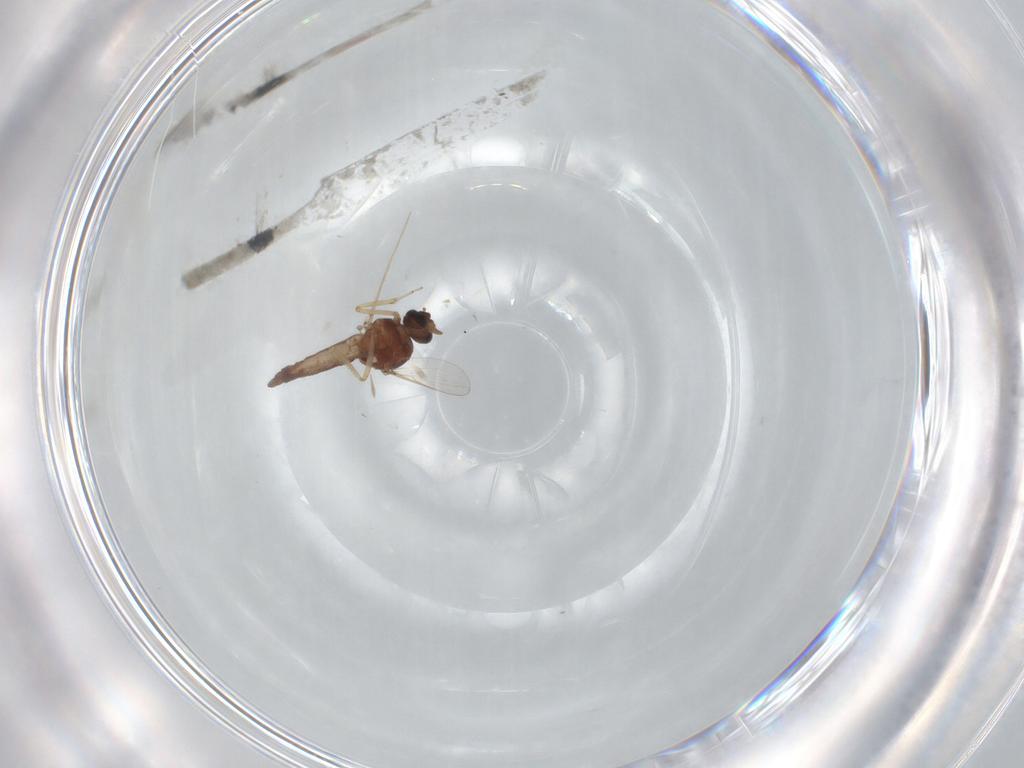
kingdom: Animalia
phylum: Arthropoda
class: Insecta
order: Diptera
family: Ceratopogonidae
